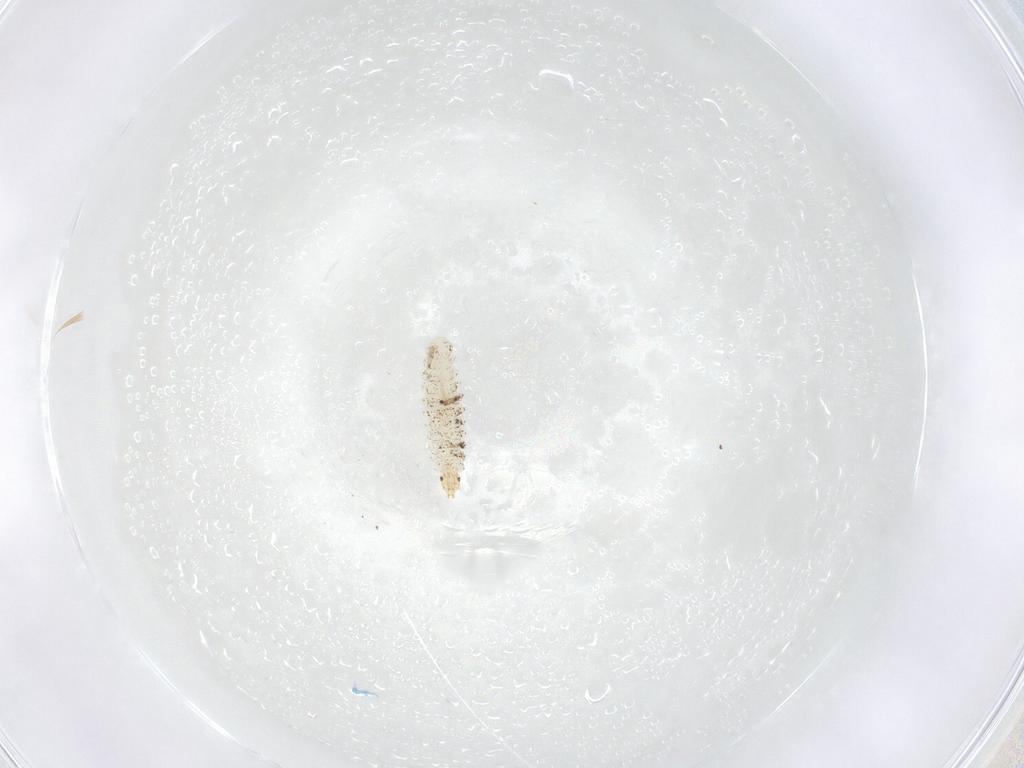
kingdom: Animalia
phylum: Arthropoda
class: Insecta
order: Diptera
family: Stratiomyidae
